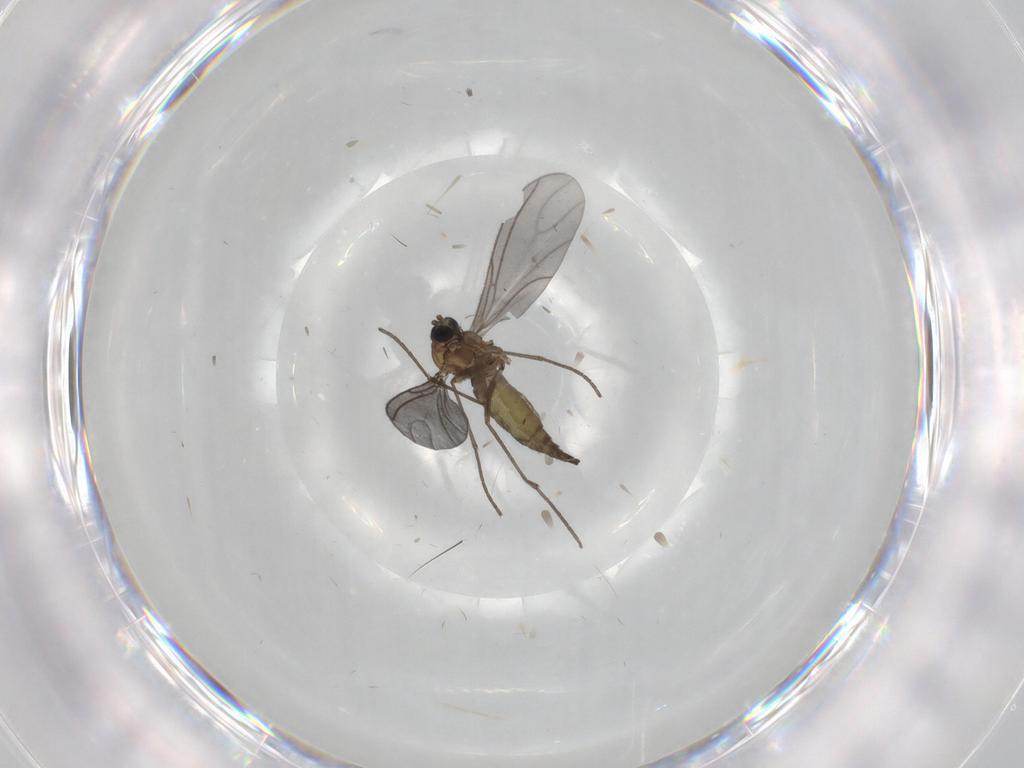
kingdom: Animalia
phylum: Arthropoda
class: Insecta
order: Diptera
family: Sciaridae
